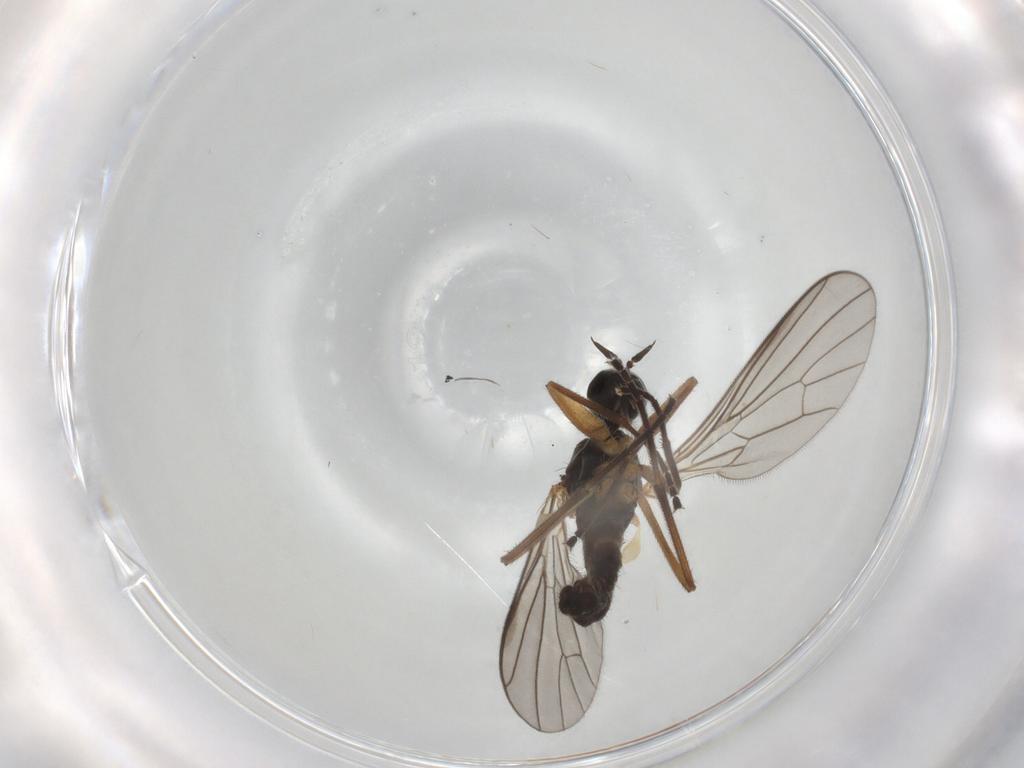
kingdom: Animalia
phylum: Arthropoda
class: Insecta
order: Diptera
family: Empididae
